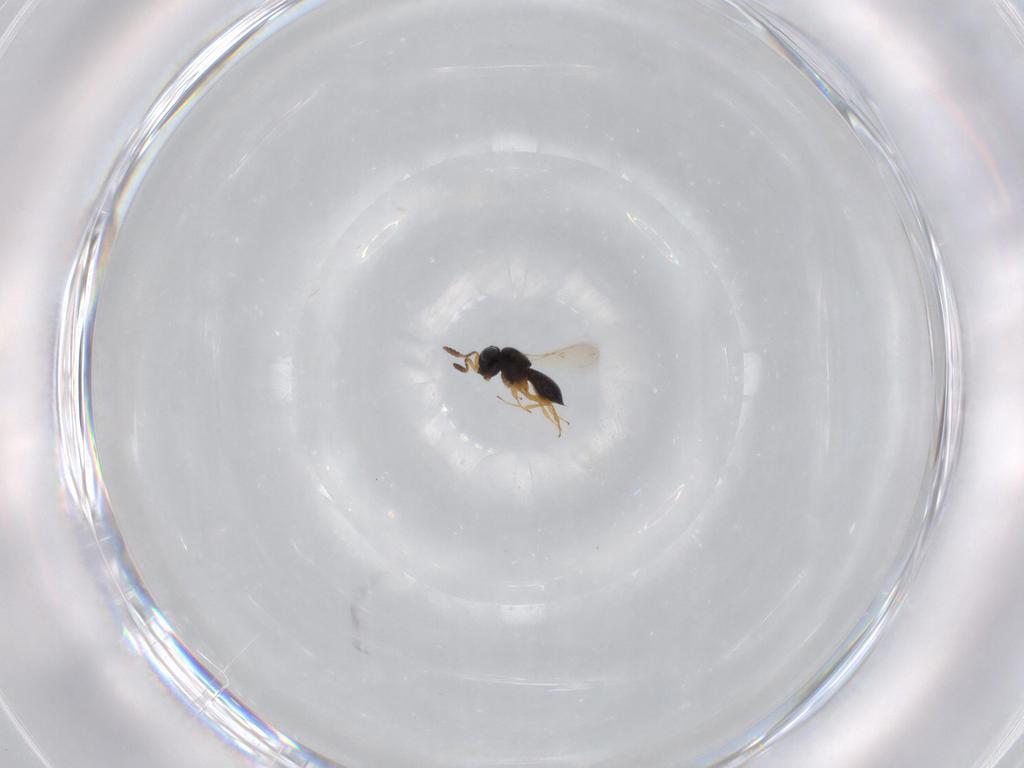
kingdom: Animalia
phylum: Arthropoda
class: Insecta
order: Hymenoptera
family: Scelionidae
